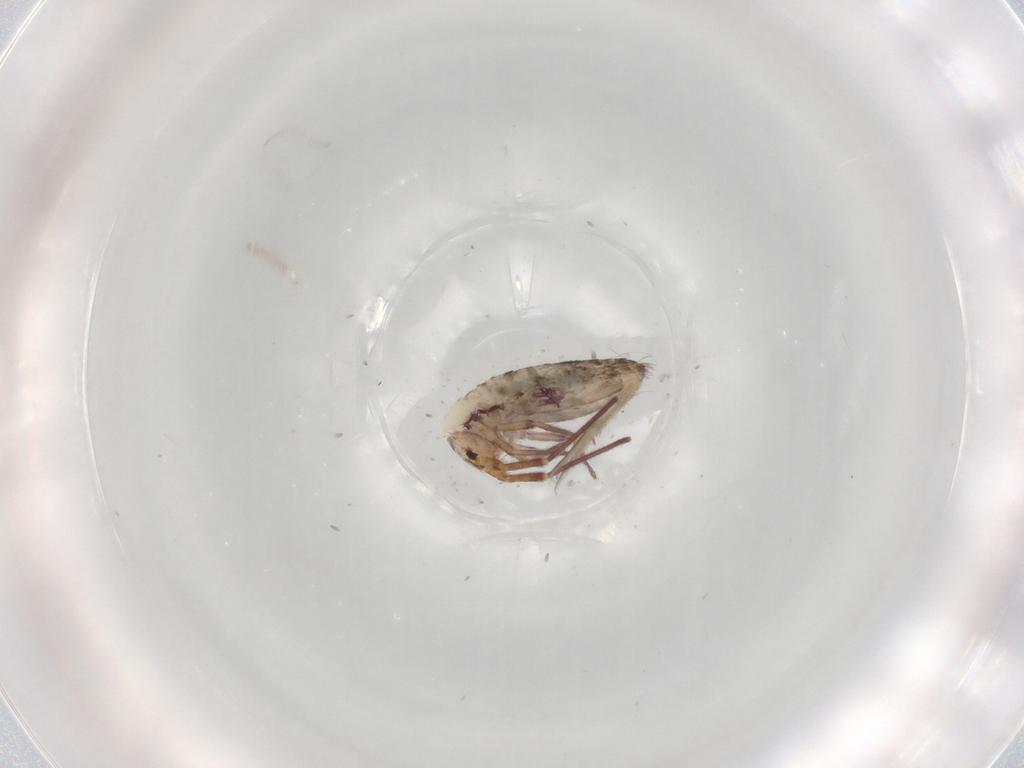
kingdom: Animalia
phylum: Arthropoda
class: Collembola
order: Entomobryomorpha
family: Entomobryidae
